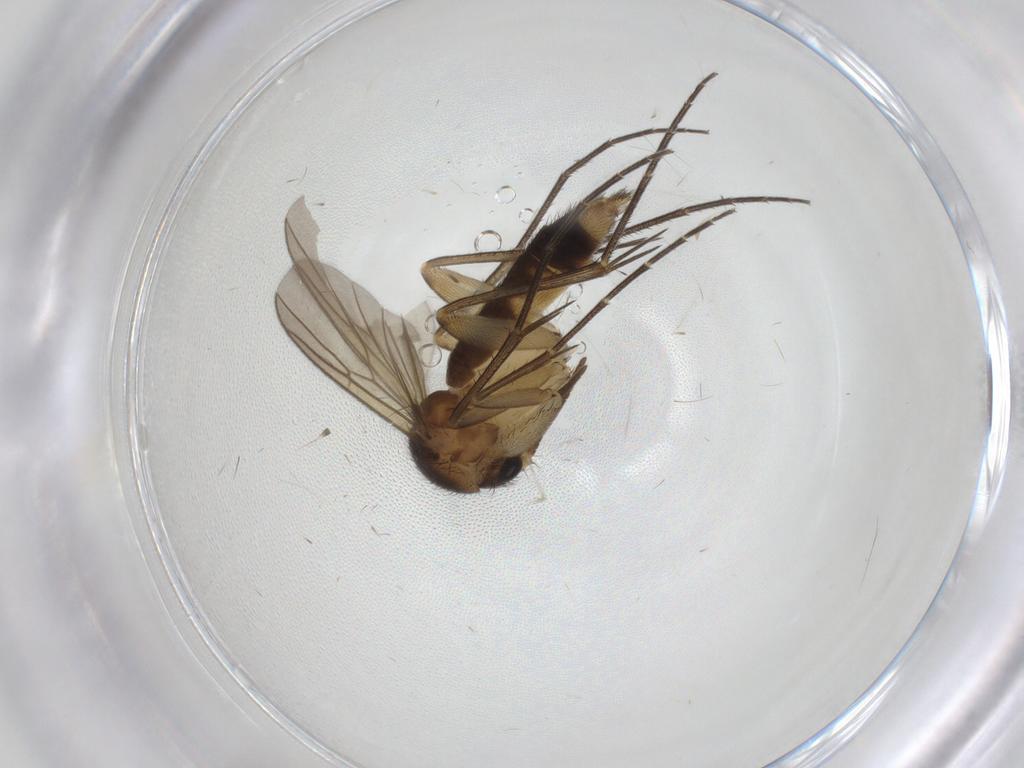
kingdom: Animalia
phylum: Arthropoda
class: Insecta
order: Diptera
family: Mycetophilidae
